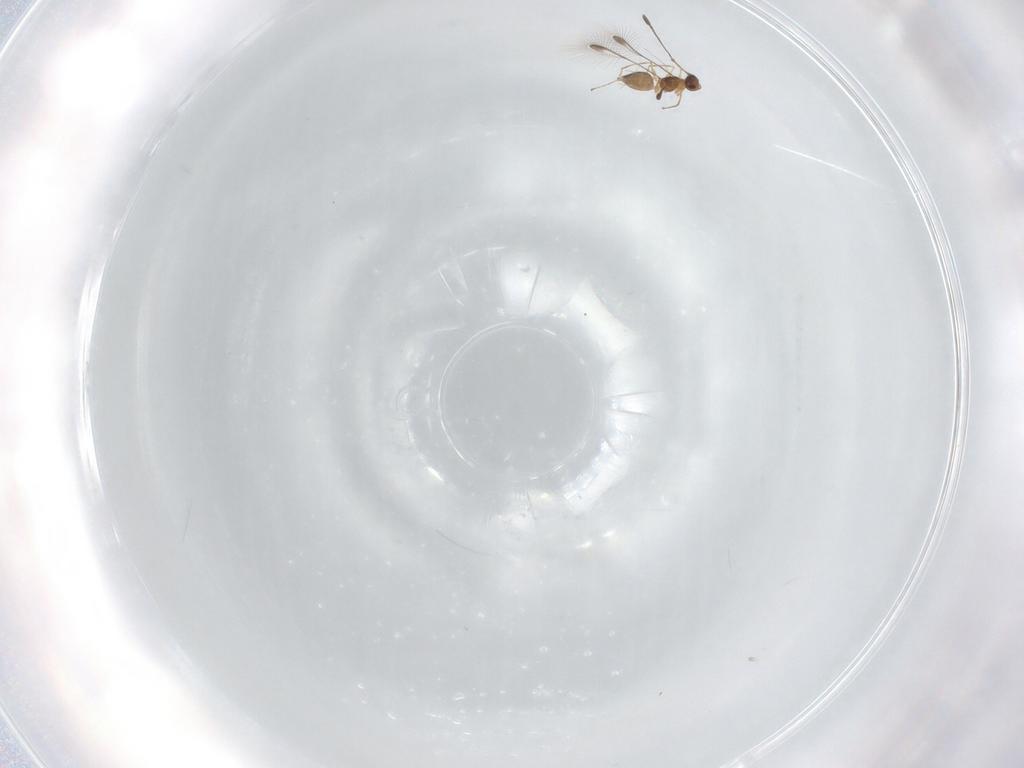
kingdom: Animalia
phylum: Arthropoda
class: Insecta
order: Hymenoptera
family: Mymaridae
